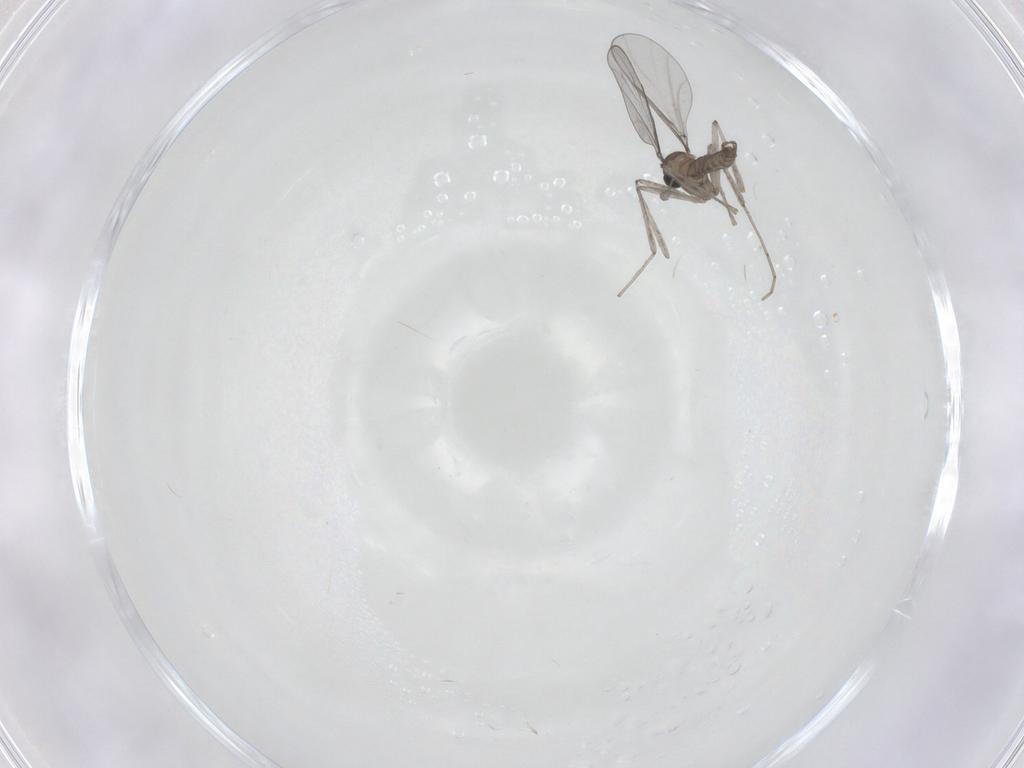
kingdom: Animalia
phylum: Arthropoda
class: Insecta
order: Diptera
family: Cecidomyiidae
